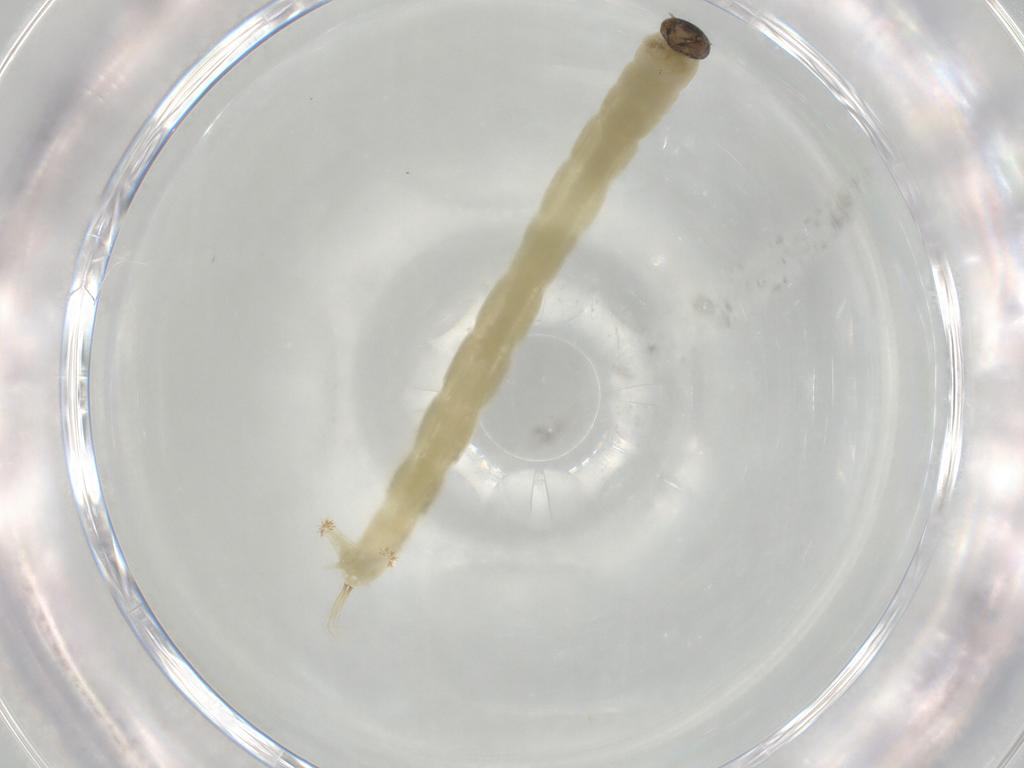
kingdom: Animalia
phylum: Arthropoda
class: Insecta
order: Diptera
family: Chironomidae
